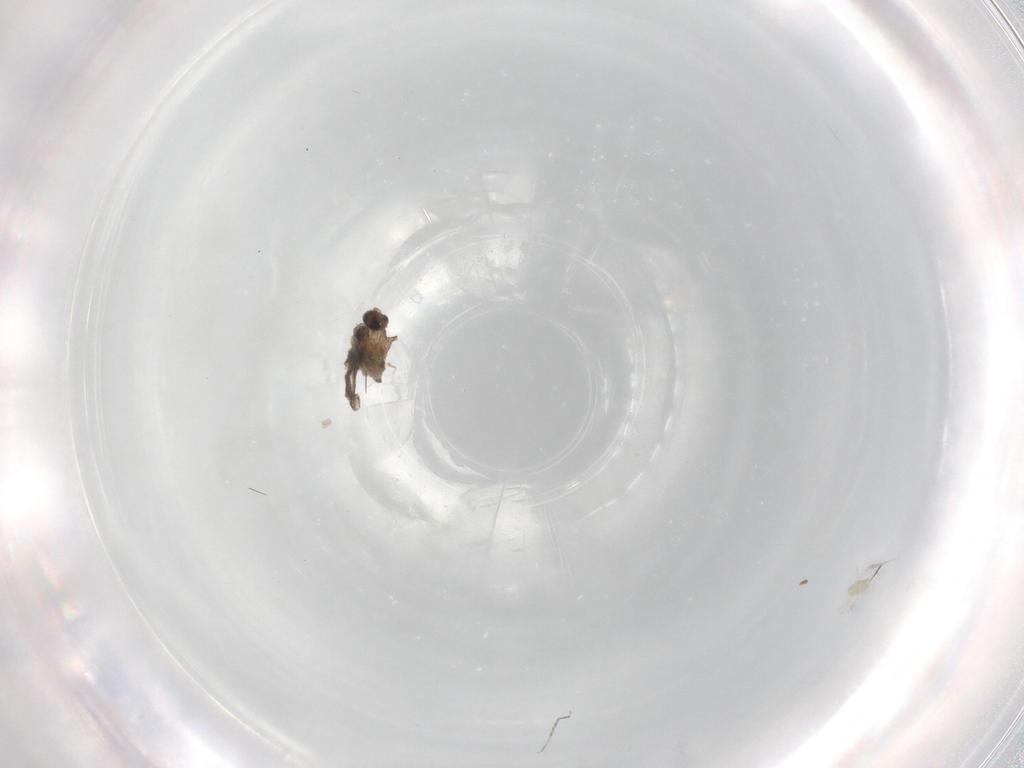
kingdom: Animalia
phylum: Arthropoda
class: Insecta
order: Diptera
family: Cecidomyiidae
